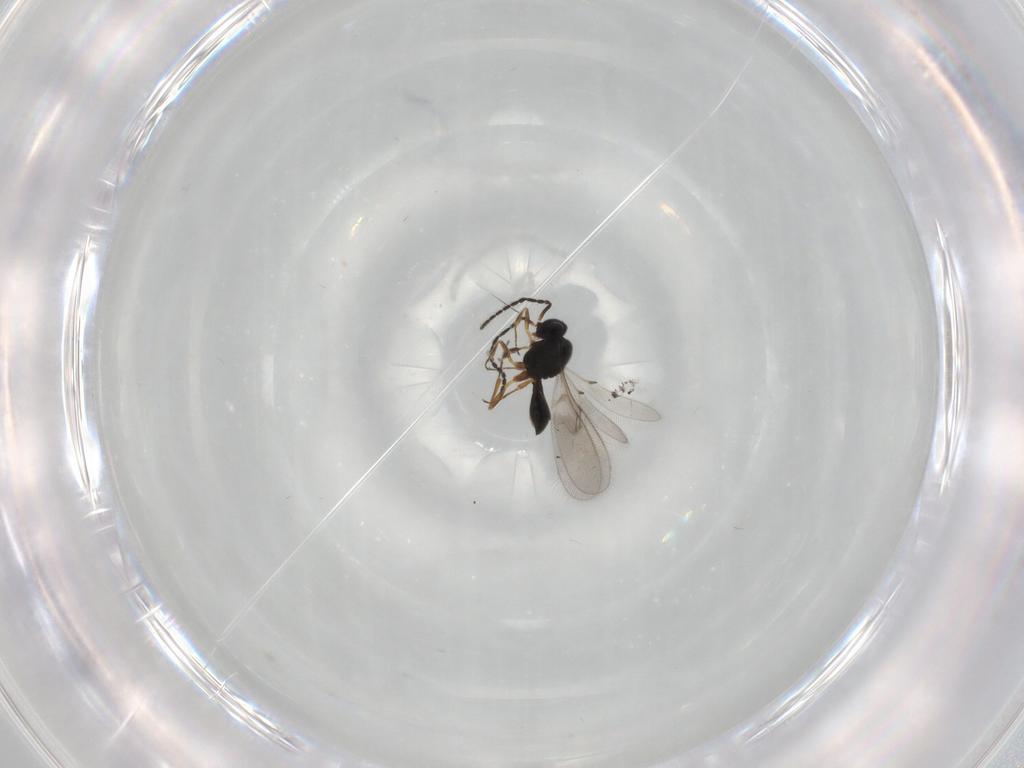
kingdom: Animalia
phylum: Arthropoda
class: Insecta
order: Hymenoptera
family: Scelionidae
